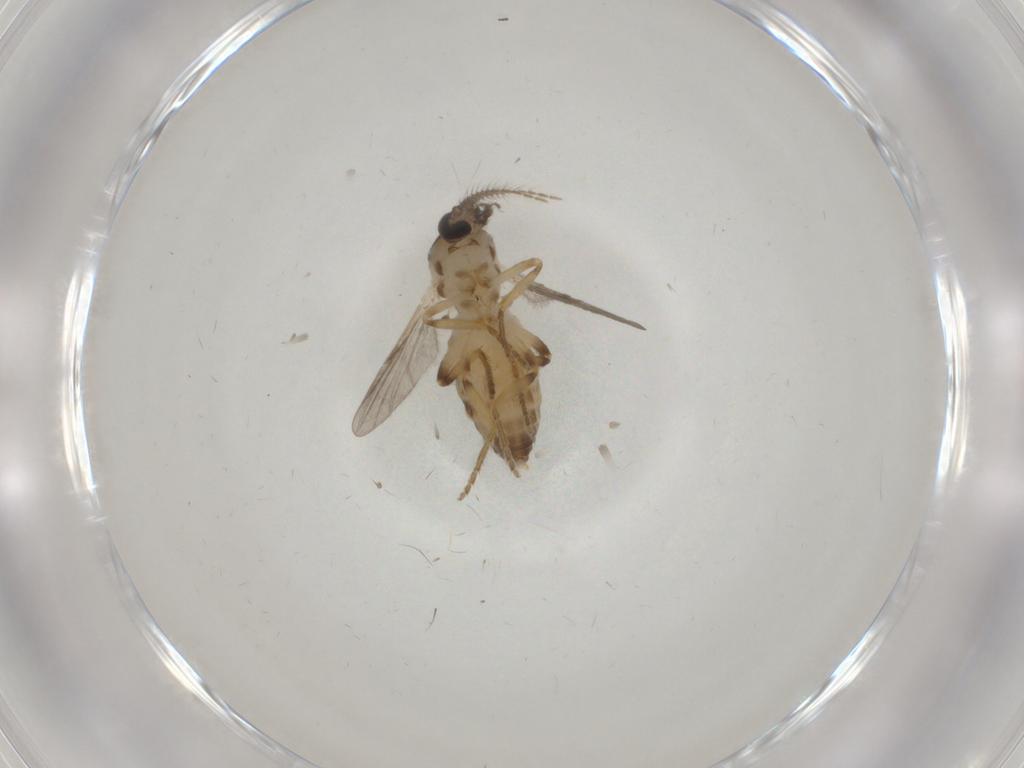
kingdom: Animalia
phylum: Arthropoda
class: Insecta
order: Diptera
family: Ceratopogonidae
